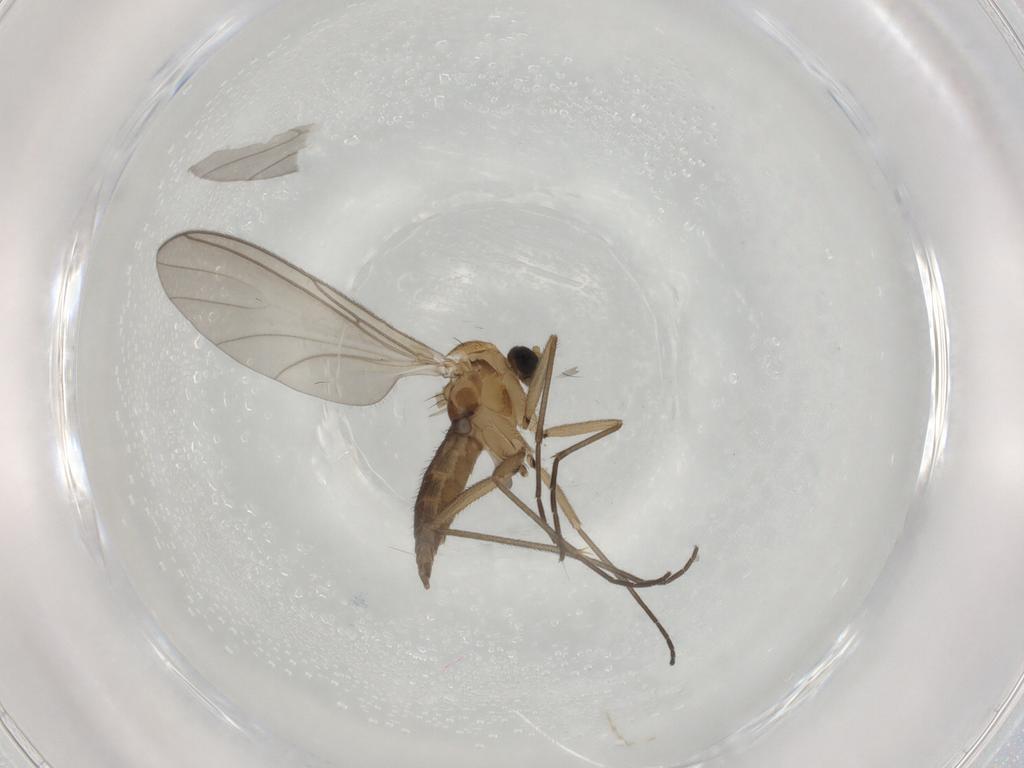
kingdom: Animalia
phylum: Arthropoda
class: Insecta
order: Diptera
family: Sciaridae
